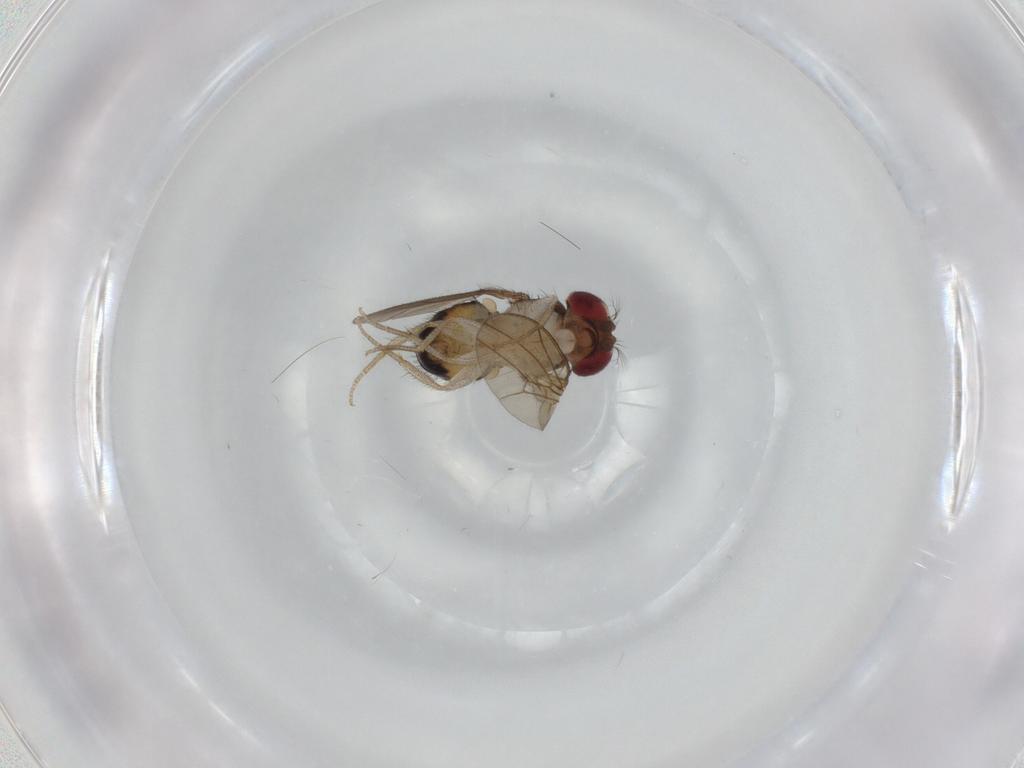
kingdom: Animalia
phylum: Arthropoda
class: Insecta
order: Diptera
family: Drosophilidae
